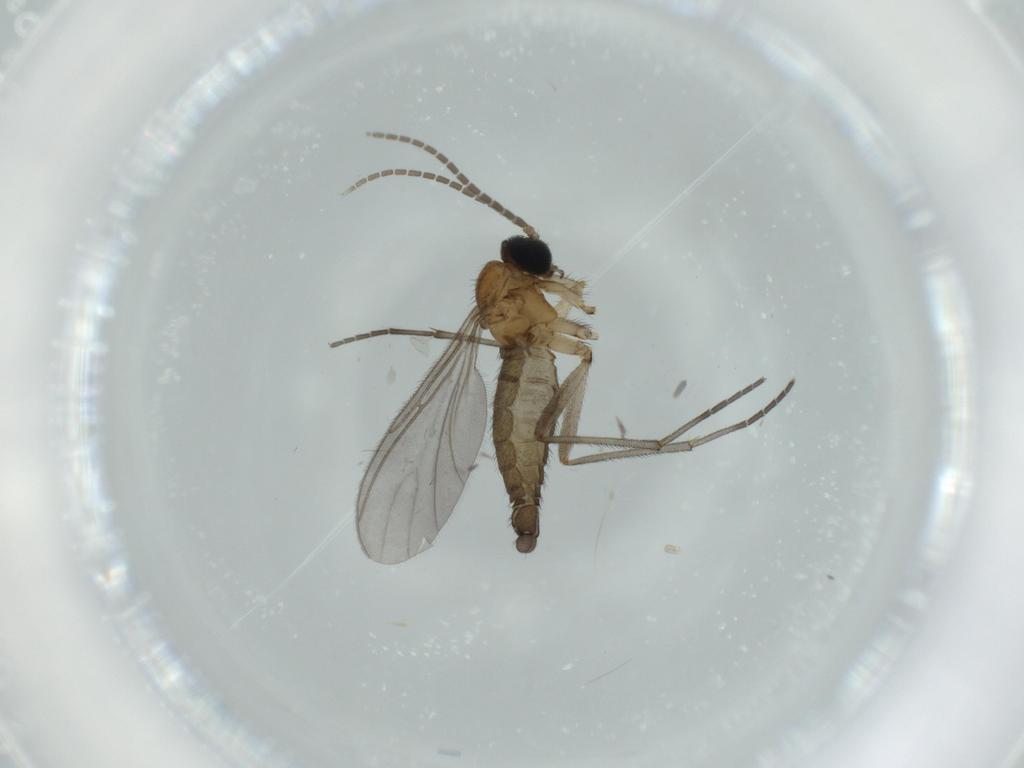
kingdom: Animalia
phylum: Arthropoda
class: Insecta
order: Diptera
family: Sciaridae
